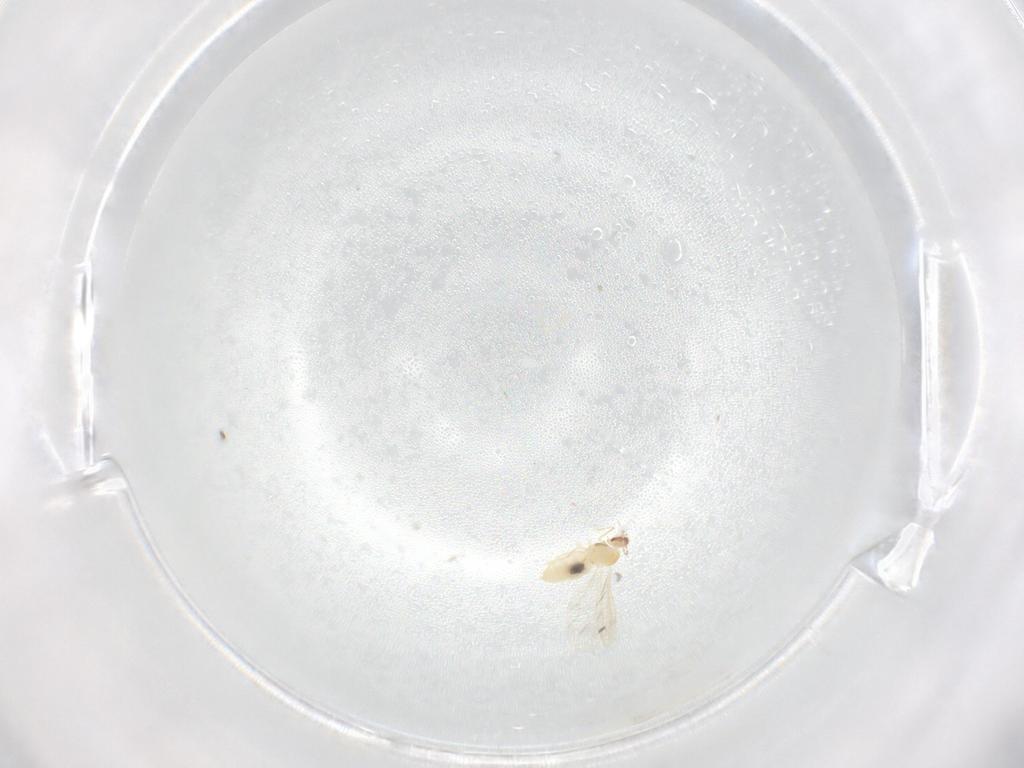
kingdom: Animalia
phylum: Arthropoda
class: Insecta
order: Diptera
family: Cecidomyiidae
